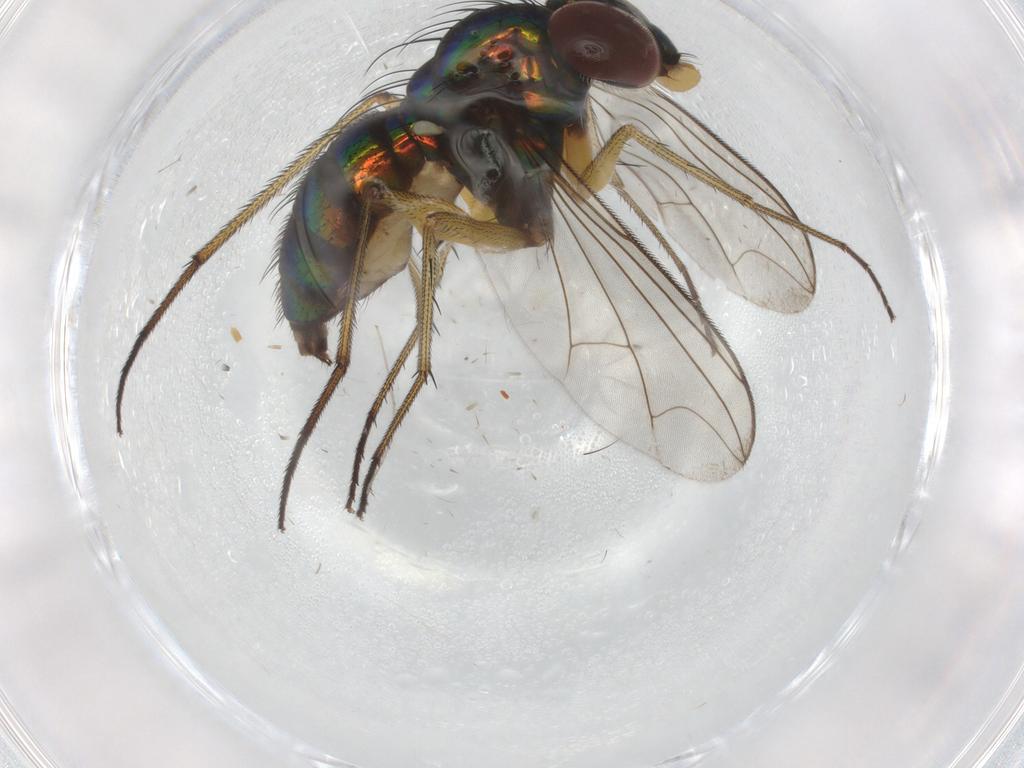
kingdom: Animalia
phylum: Arthropoda
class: Insecta
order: Diptera
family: Dolichopodidae
